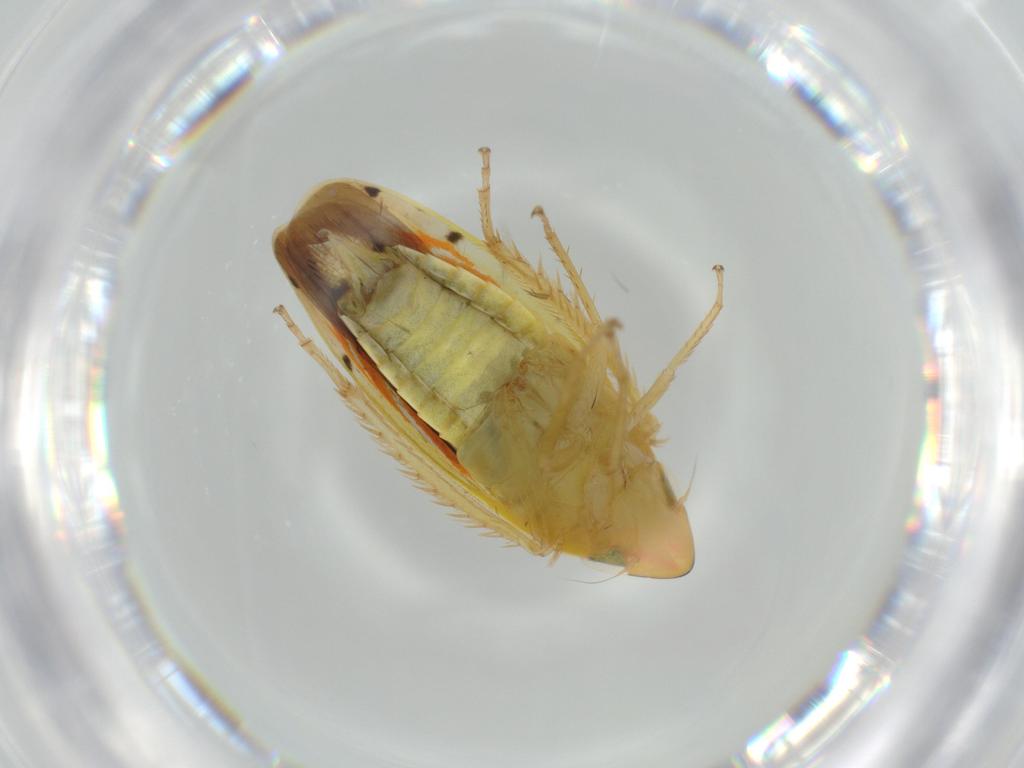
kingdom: Animalia
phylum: Arthropoda
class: Insecta
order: Hemiptera
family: Cicadellidae
